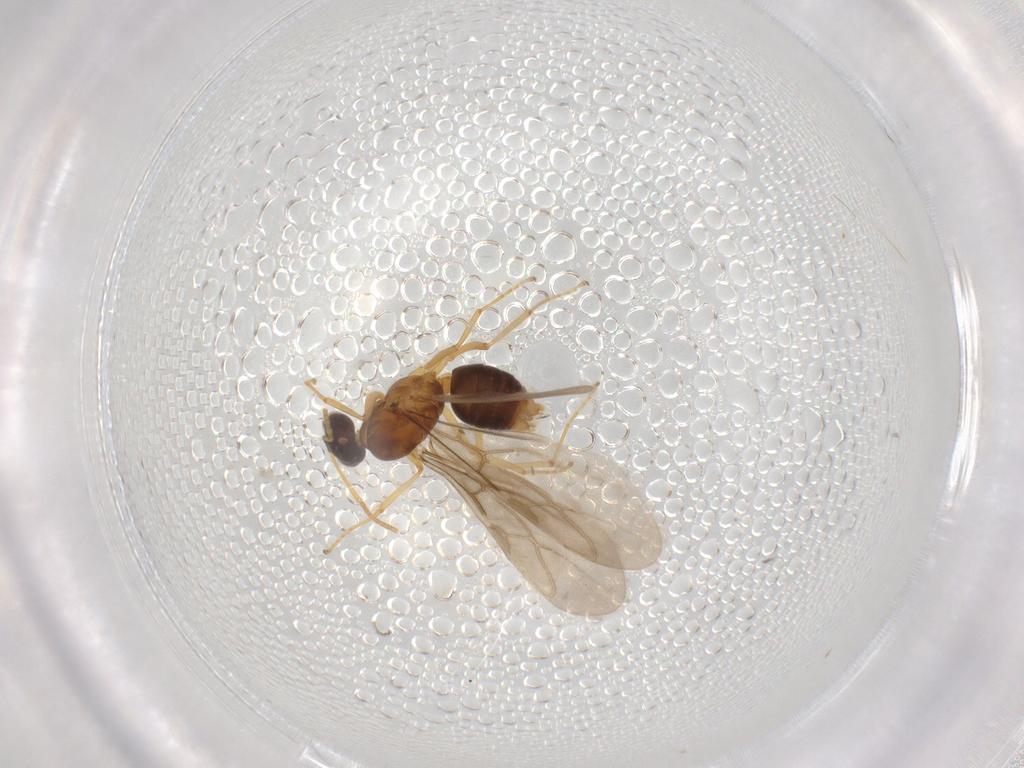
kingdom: Animalia
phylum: Arthropoda
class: Insecta
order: Hymenoptera
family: Formicidae
